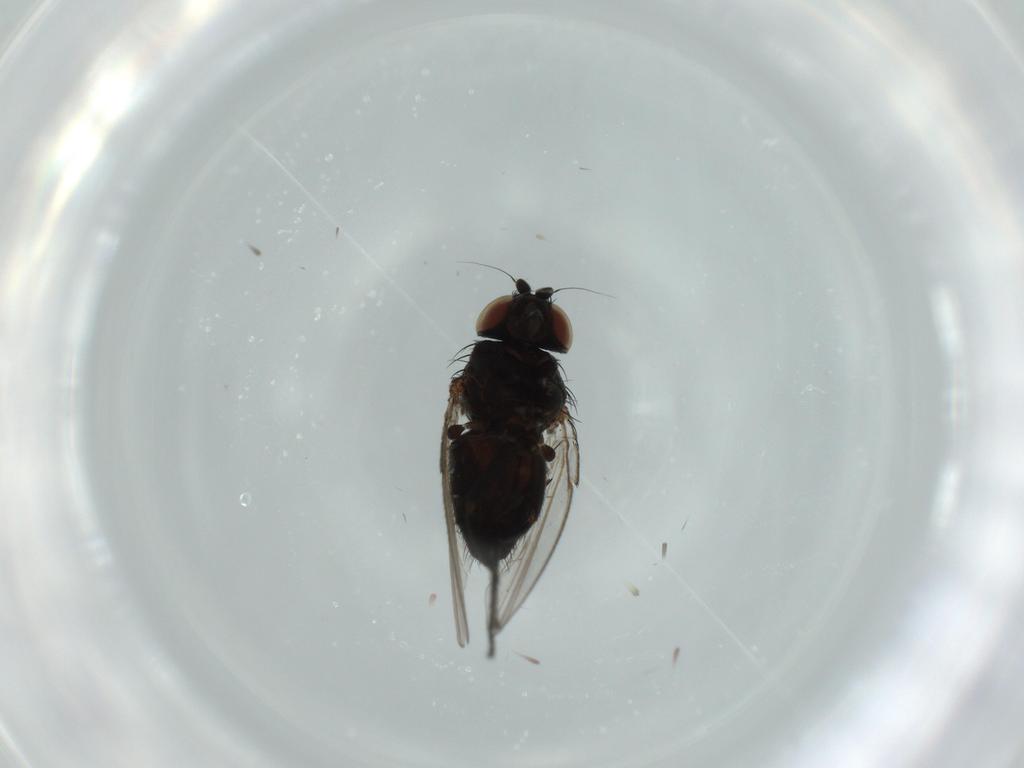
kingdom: Animalia
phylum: Arthropoda
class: Insecta
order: Diptera
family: Milichiidae
